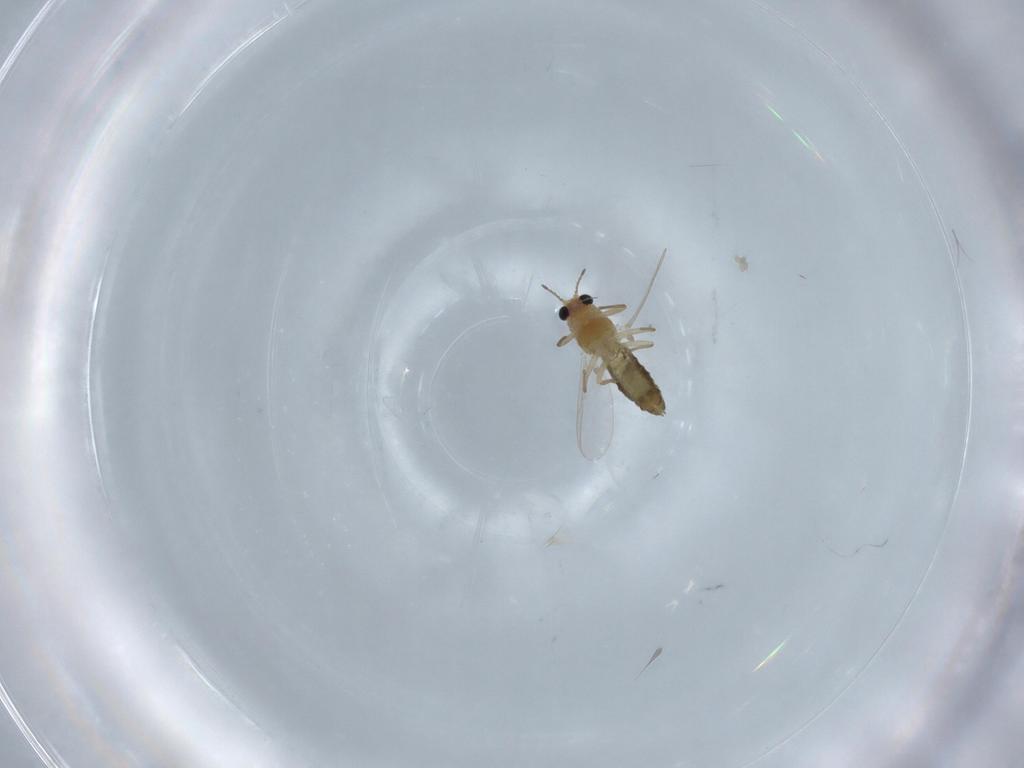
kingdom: Animalia
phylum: Arthropoda
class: Insecta
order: Diptera
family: Chironomidae
